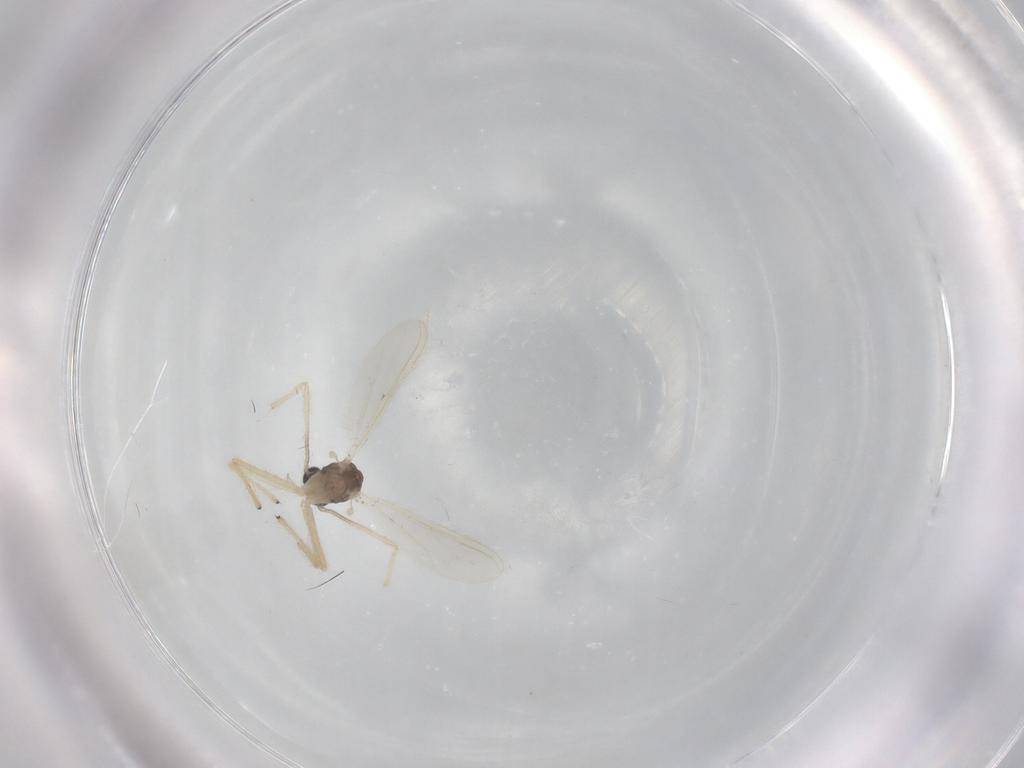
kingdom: Animalia
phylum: Arthropoda
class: Insecta
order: Diptera
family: Chironomidae
